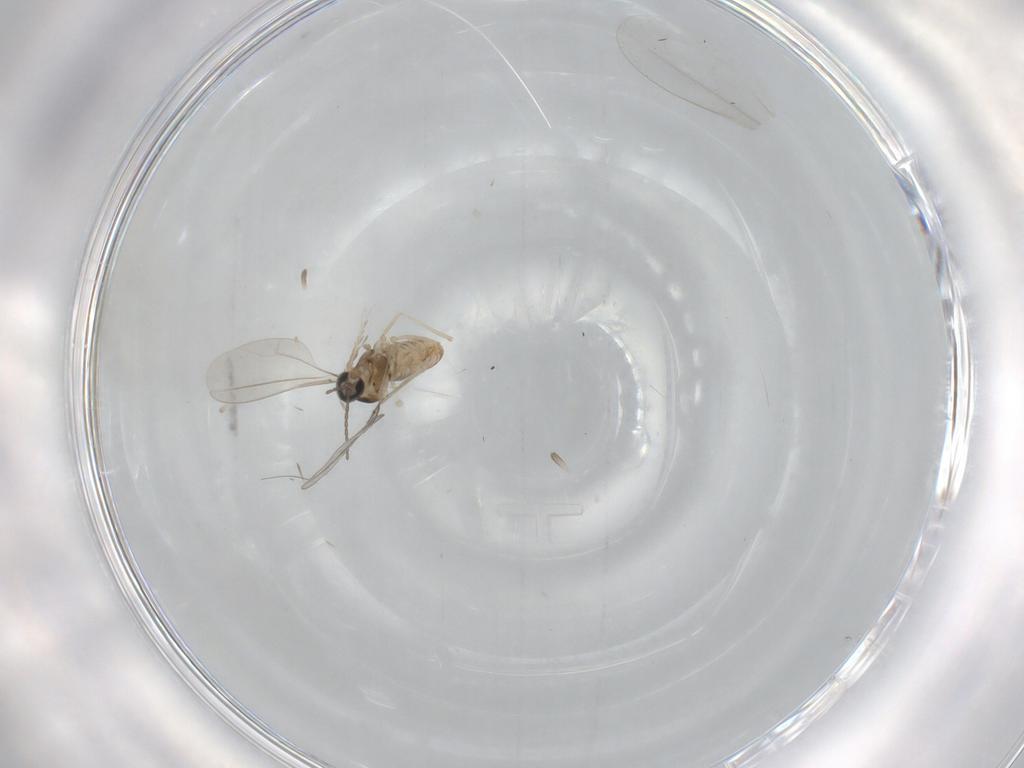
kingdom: Animalia
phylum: Arthropoda
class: Insecta
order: Diptera
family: Cecidomyiidae
